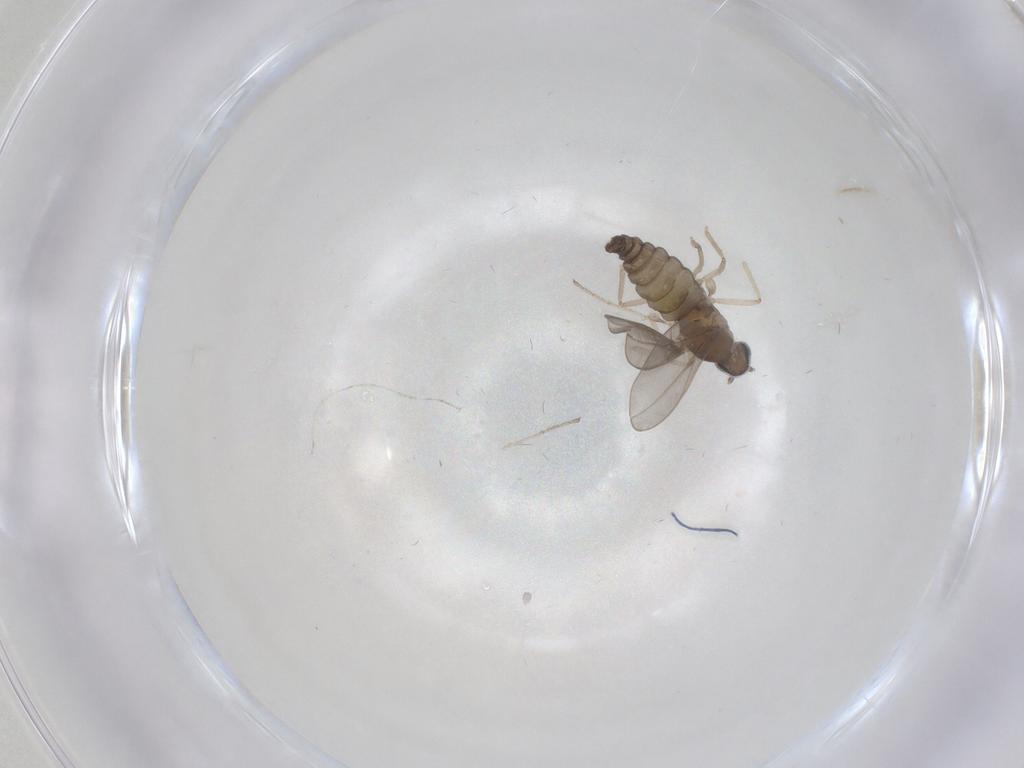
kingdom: Animalia
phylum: Arthropoda
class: Insecta
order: Diptera
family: Cecidomyiidae
